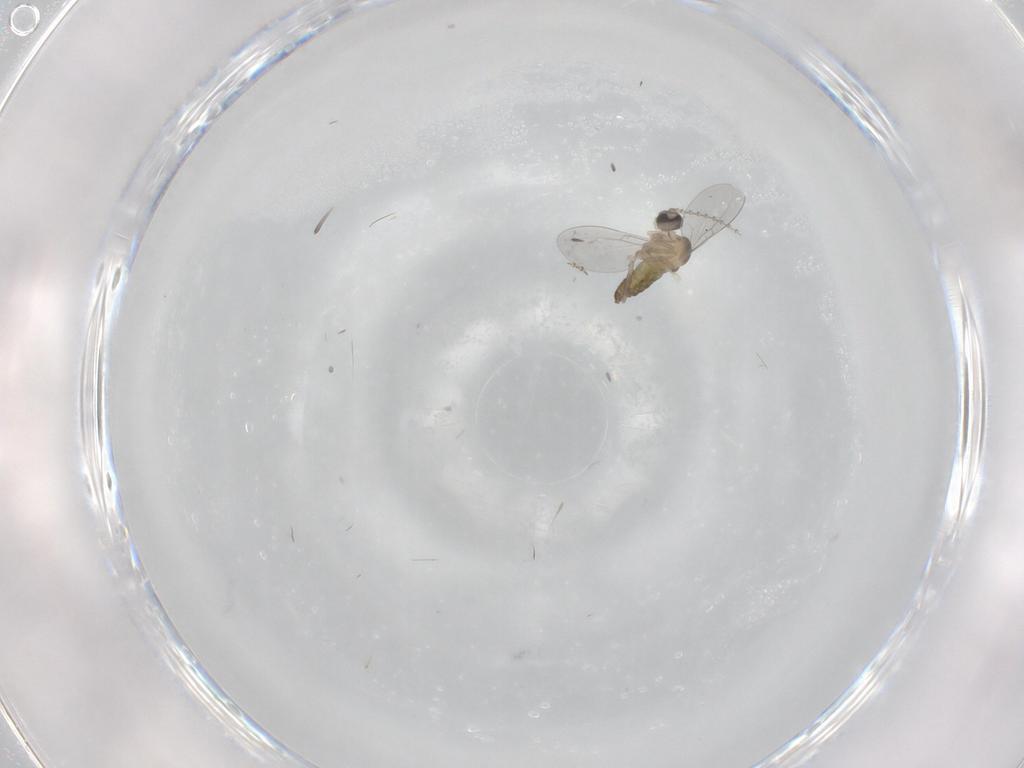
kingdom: Animalia
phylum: Arthropoda
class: Insecta
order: Diptera
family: Cecidomyiidae
